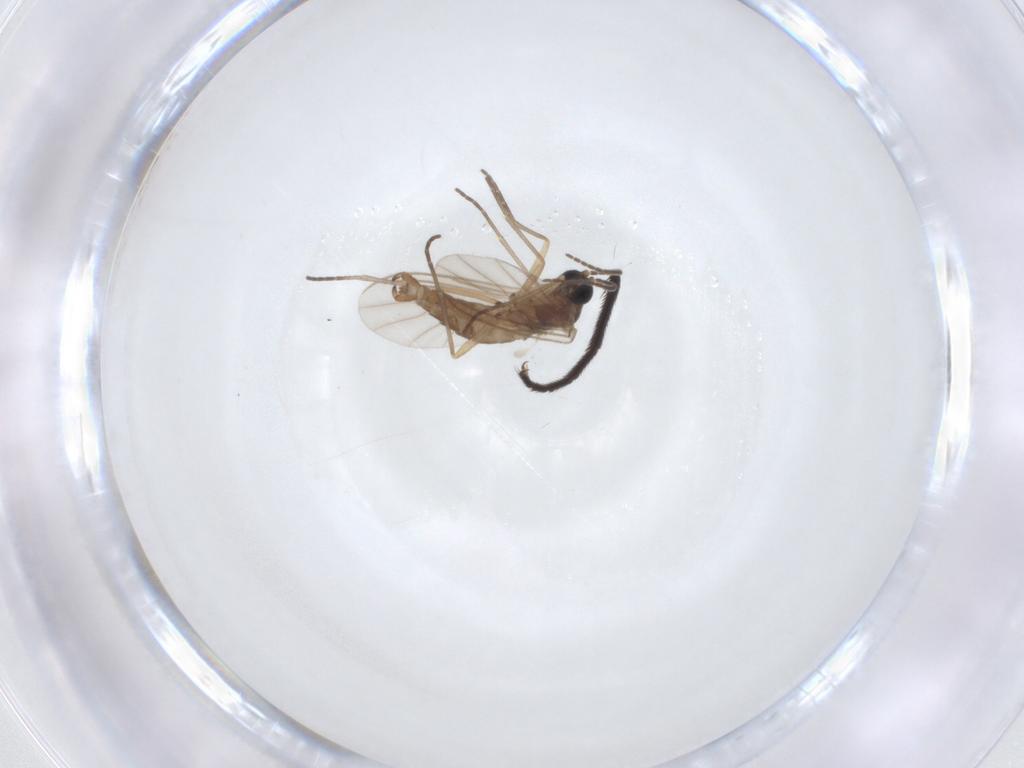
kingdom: Animalia
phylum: Arthropoda
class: Insecta
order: Diptera
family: Sciaridae
